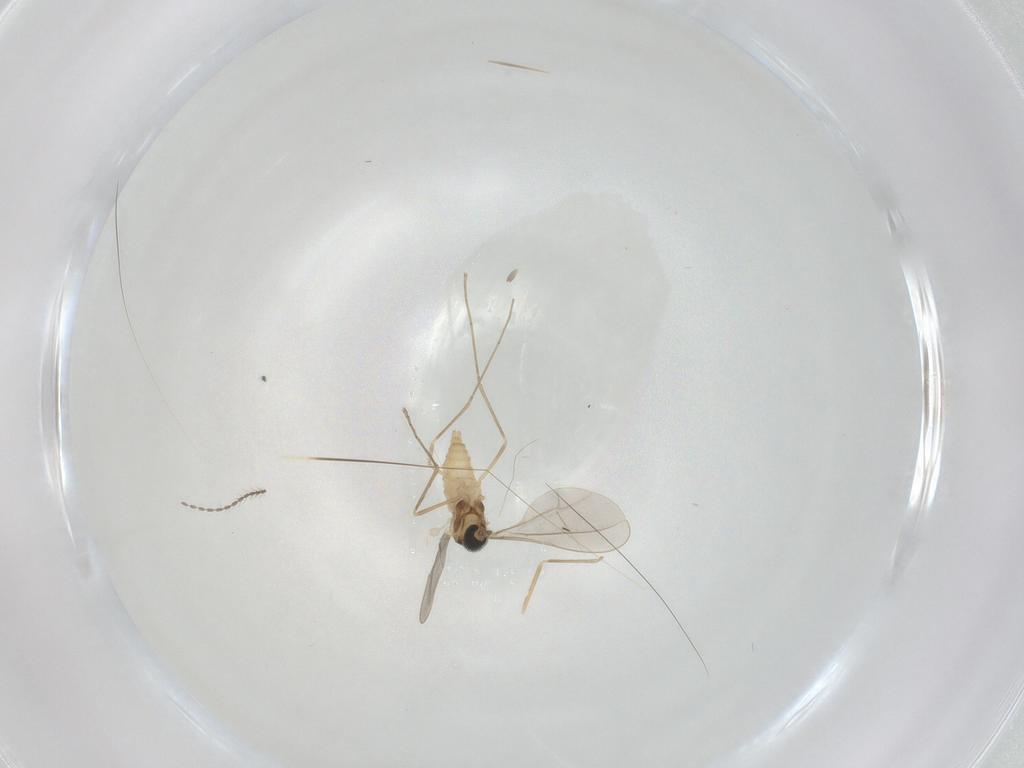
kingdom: Animalia
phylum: Arthropoda
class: Insecta
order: Diptera
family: Cecidomyiidae
